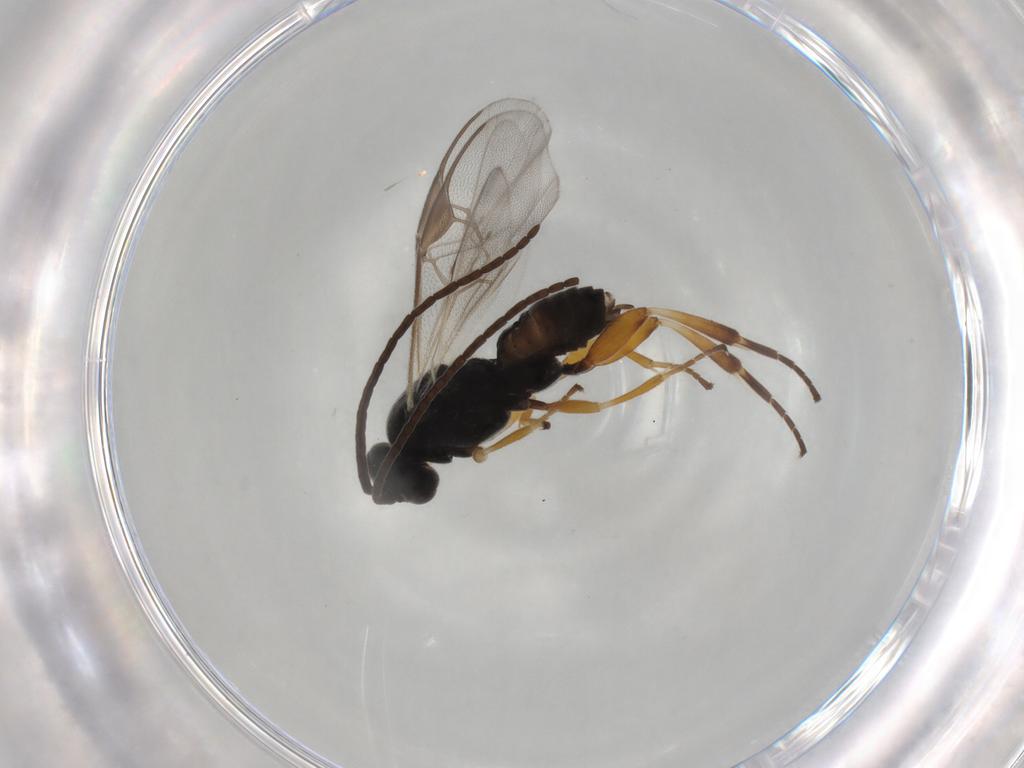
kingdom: Animalia
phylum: Arthropoda
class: Insecta
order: Hymenoptera
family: Braconidae
